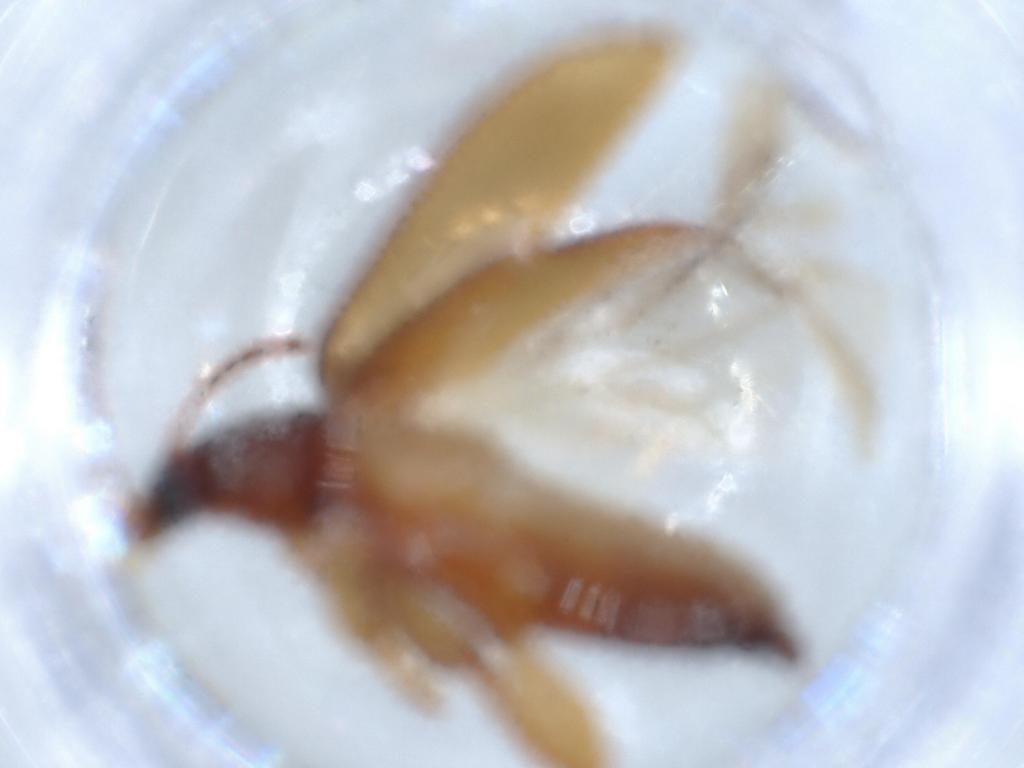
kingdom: Animalia
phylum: Arthropoda
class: Insecta
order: Coleoptera
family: Tenebrionidae
